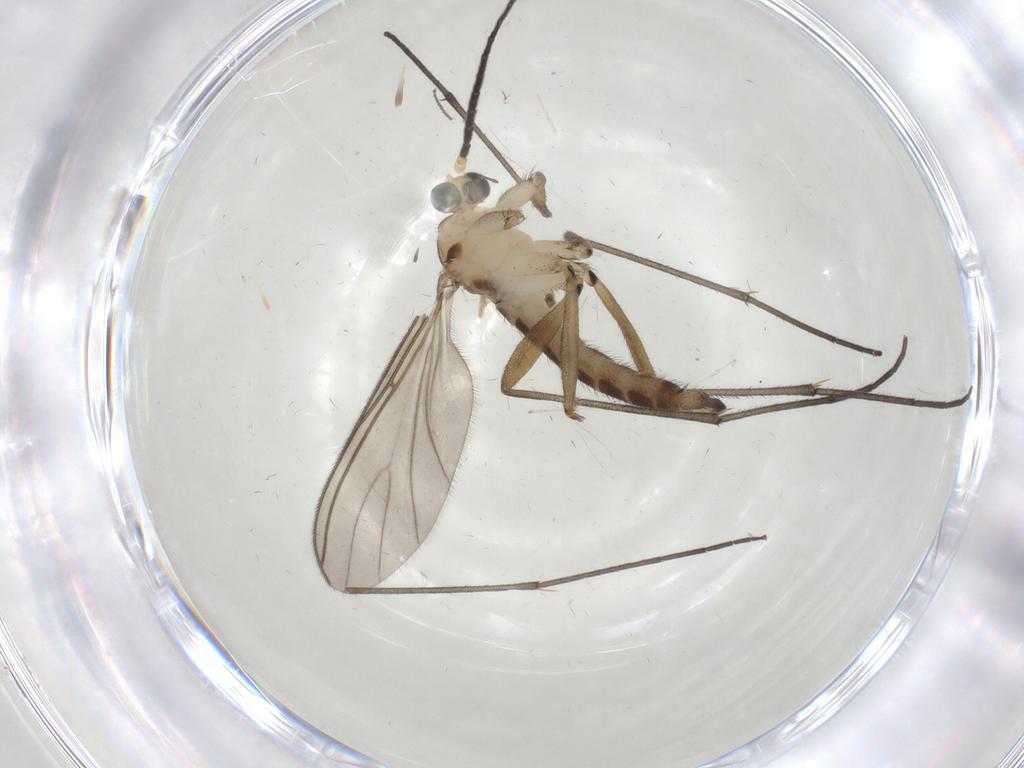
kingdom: Animalia
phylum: Arthropoda
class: Insecta
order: Diptera
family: Sciaridae
